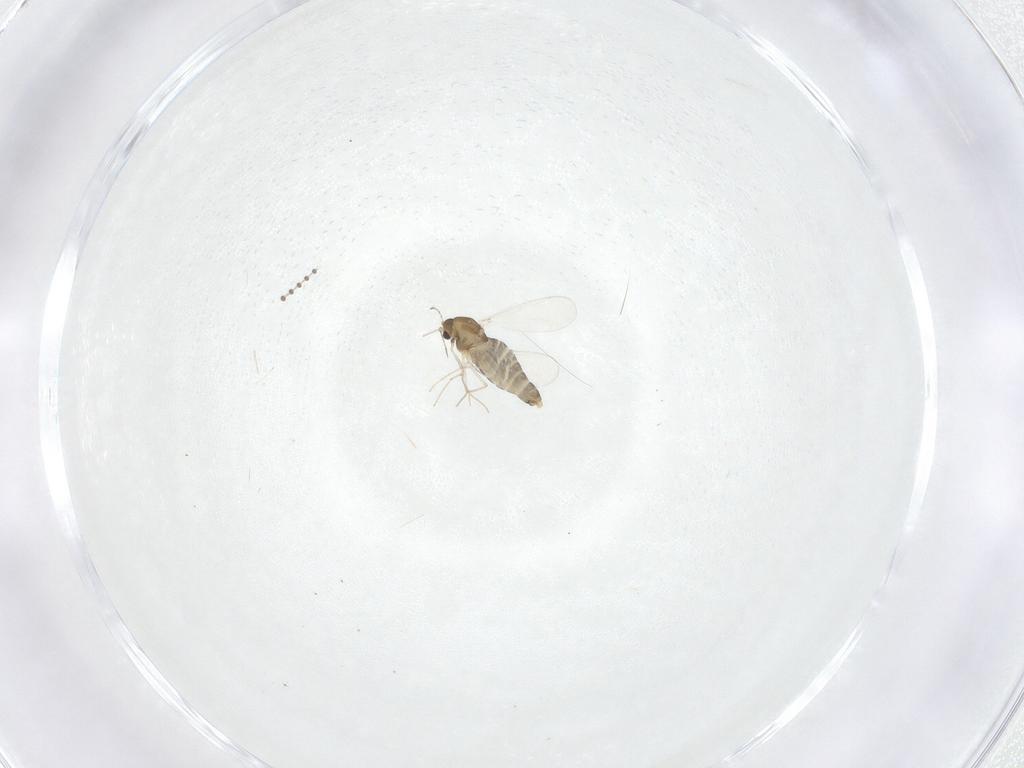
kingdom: Animalia
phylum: Arthropoda
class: Insecta
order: Diptera
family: Chironomidae
